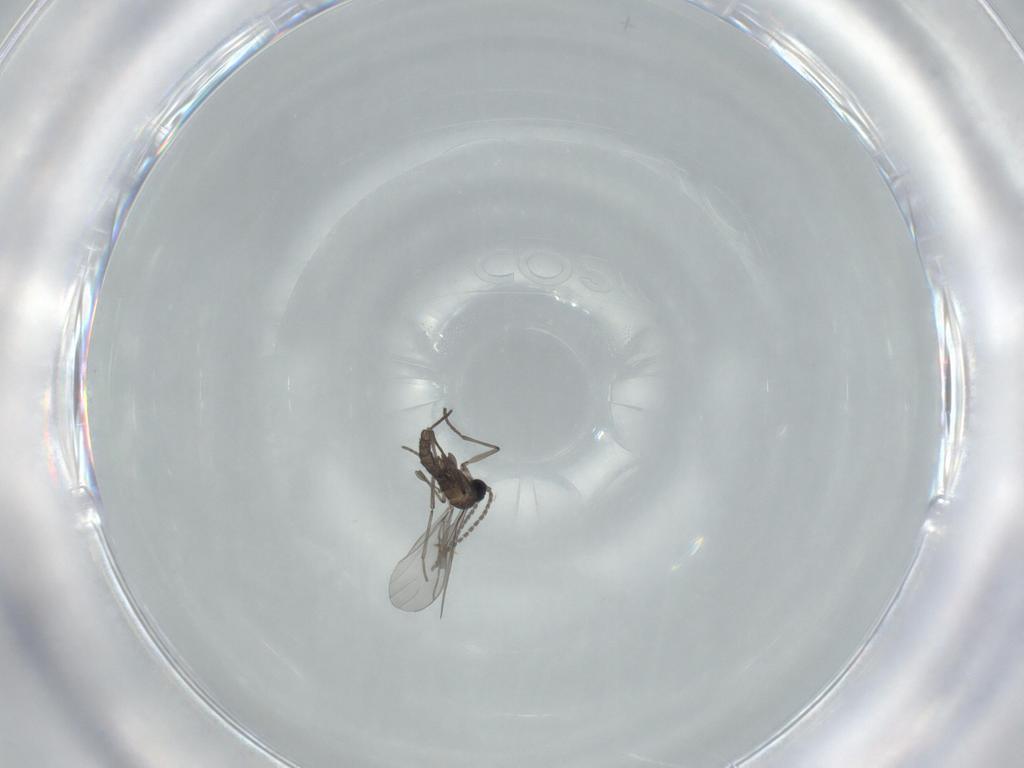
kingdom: Animalia
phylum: Arthropoda
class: Insecta
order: Diptera
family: Sciaridae
